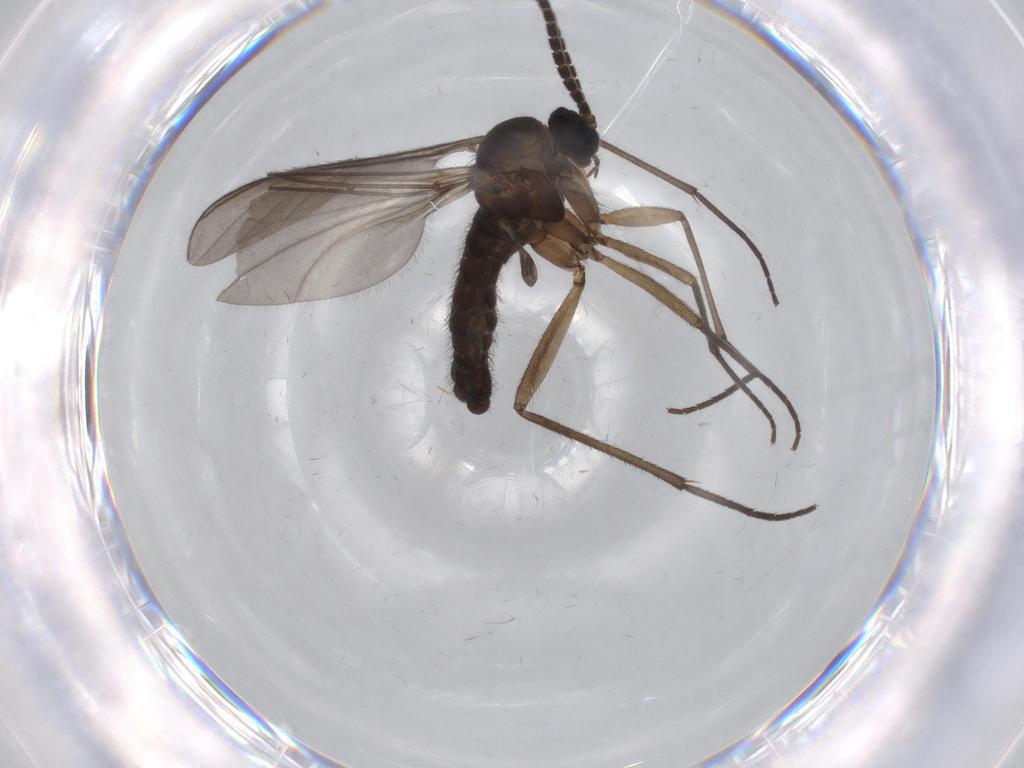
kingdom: Animalia
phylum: Arthropoda
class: Insecta
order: Diptera
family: Sciaridae
